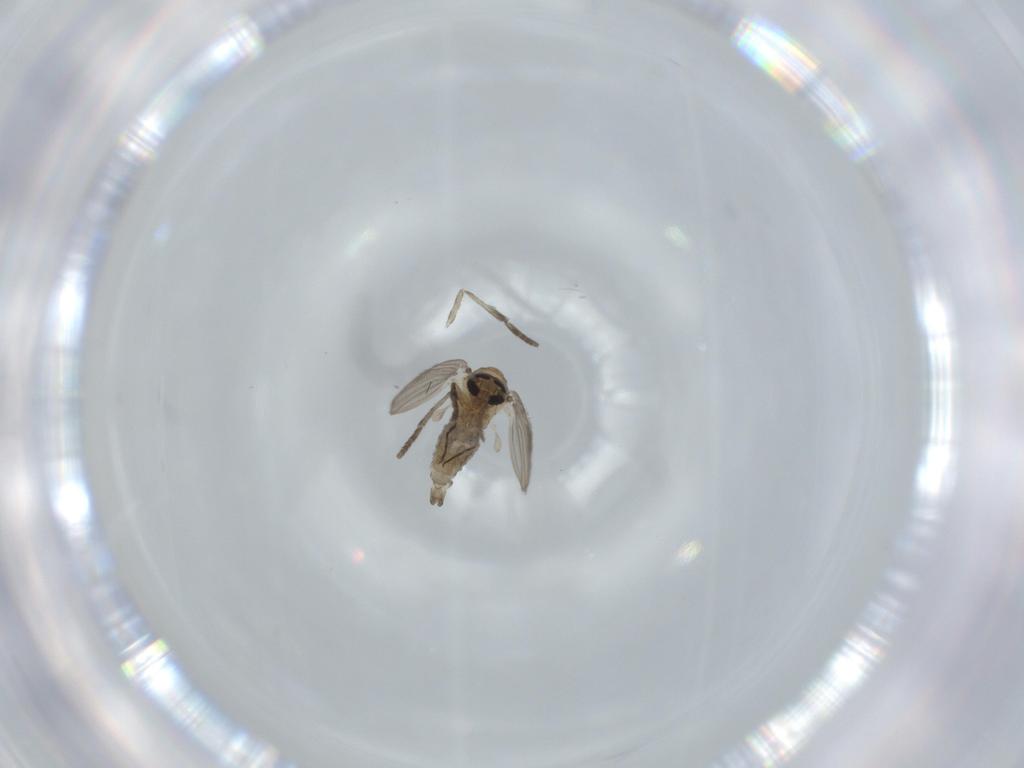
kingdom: Animalia
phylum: Arthropoda
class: Insecta
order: Diptera
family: Psychodidae
